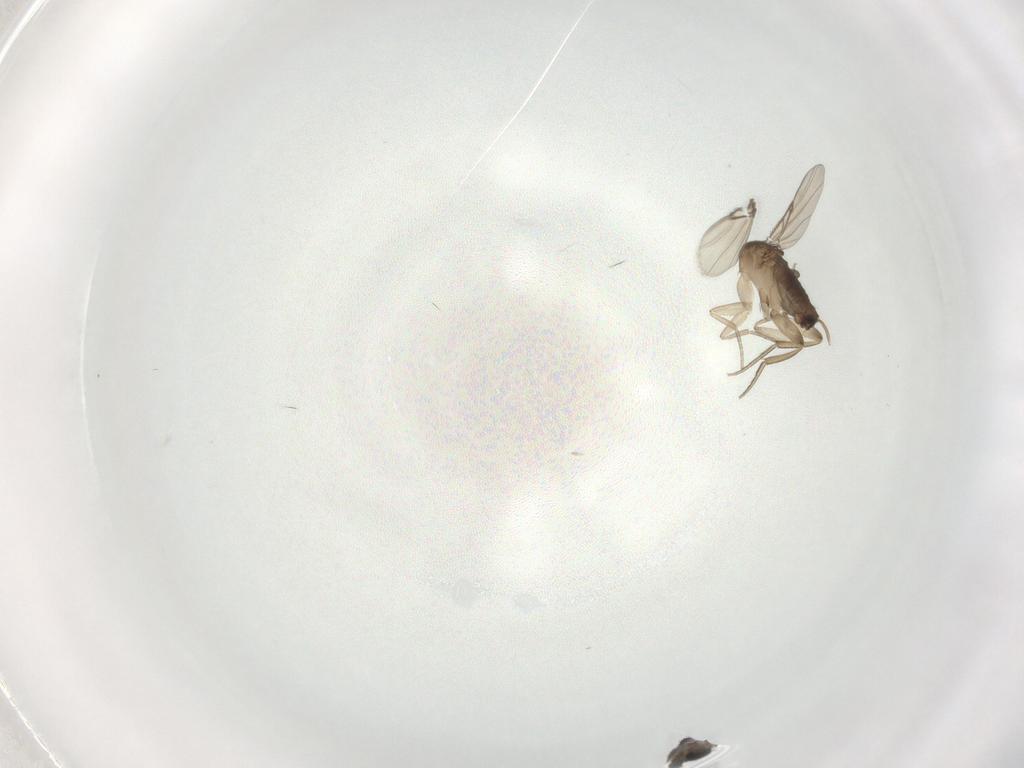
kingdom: Animalia
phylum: Arthropoda
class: Insecta
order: Diptera
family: Phoridae
